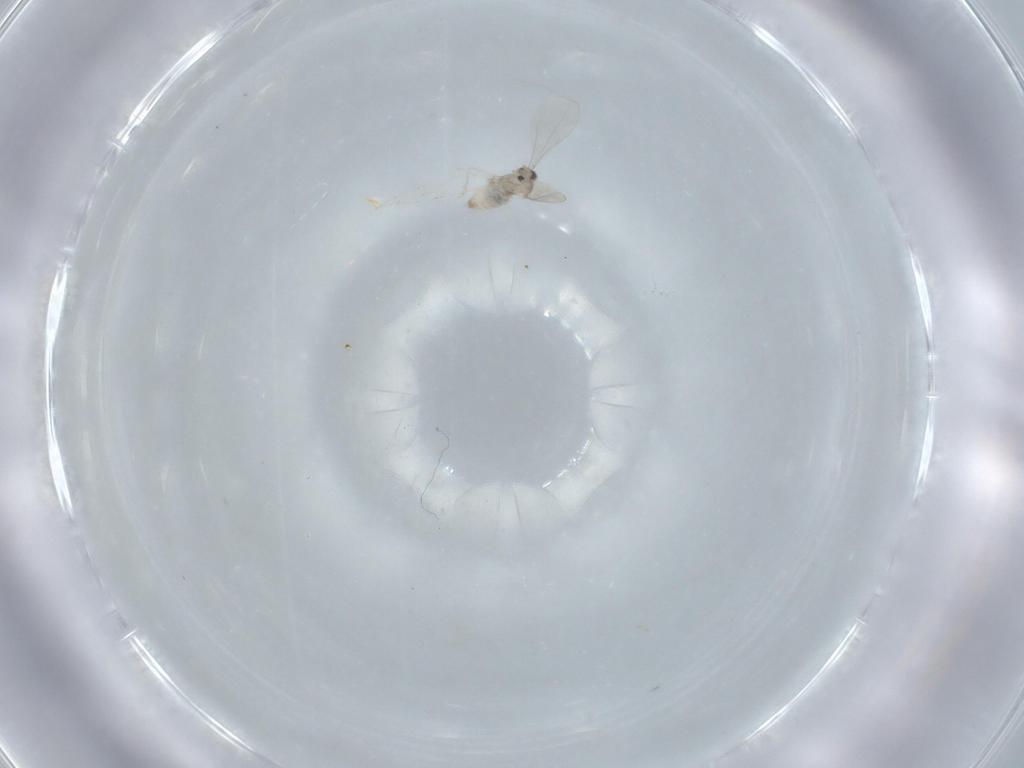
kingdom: Animalia
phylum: Arthropoda
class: Insecta
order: Diptera
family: Cecidomyiidae
